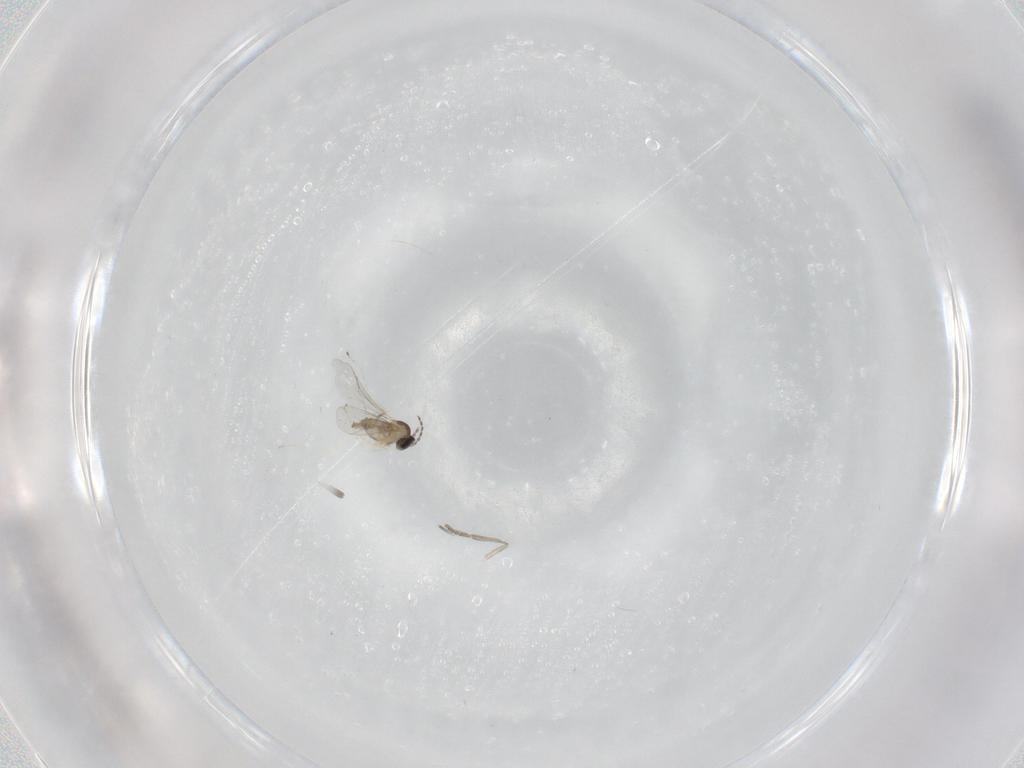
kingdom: Animalia
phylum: Arthropoda
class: Insecta
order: Diptera
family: Cecidomyiidae
